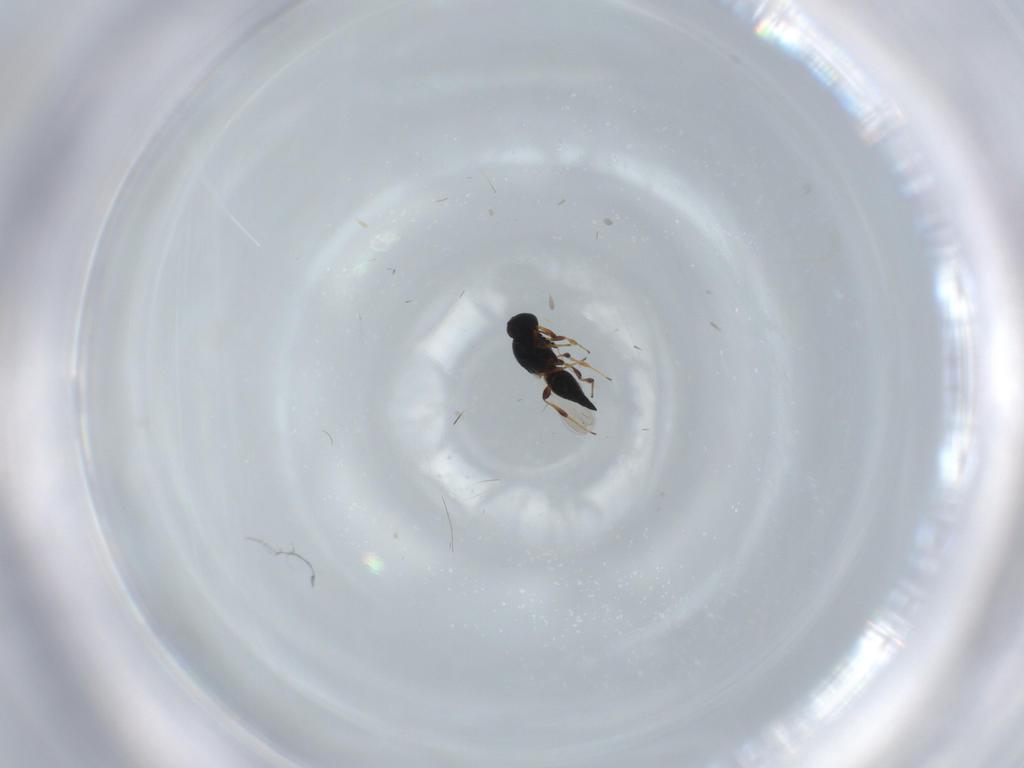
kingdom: Animalia
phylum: Arthropoda
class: Insecta
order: Hymenoptera
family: Platygastridae
